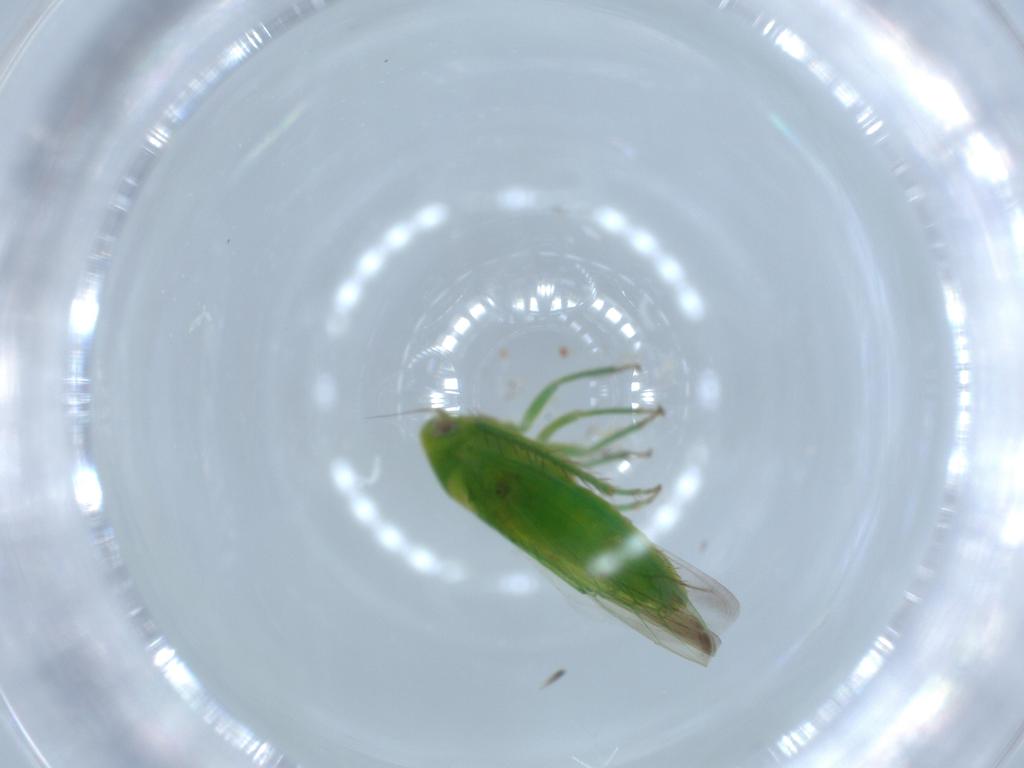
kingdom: Animalia
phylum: Arthropoda
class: Insecta
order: Hemiptera
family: Cicadellidae
